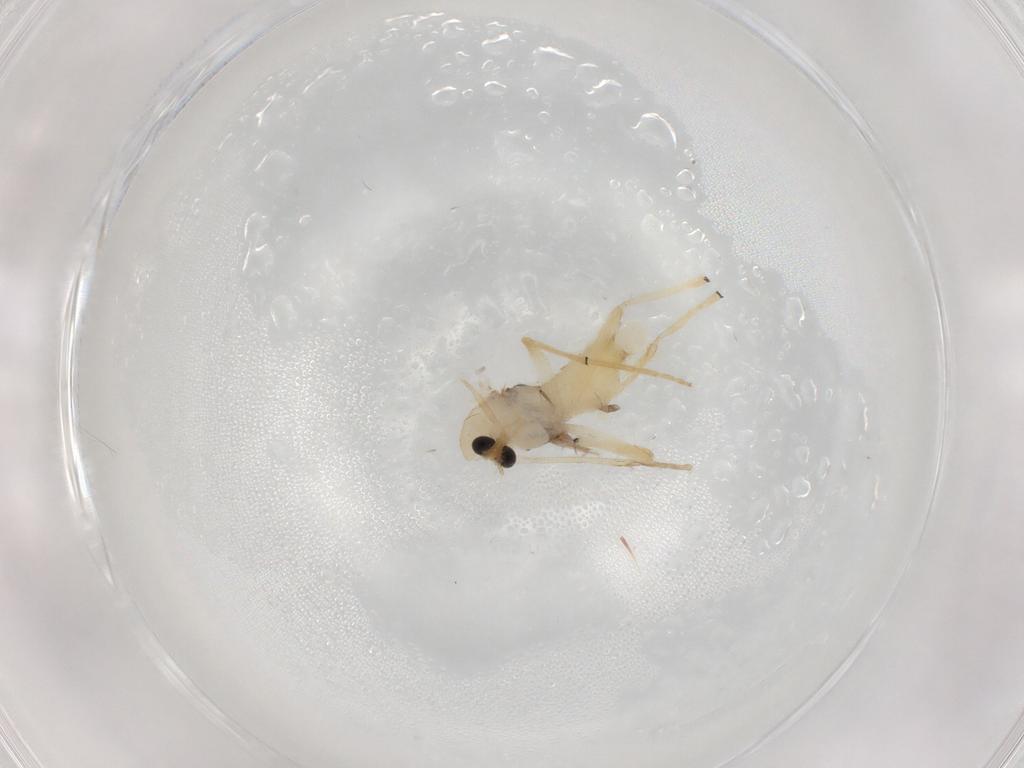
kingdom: Animalia
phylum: Arthropoda
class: Insecta
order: Diptera
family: Chironomidae
